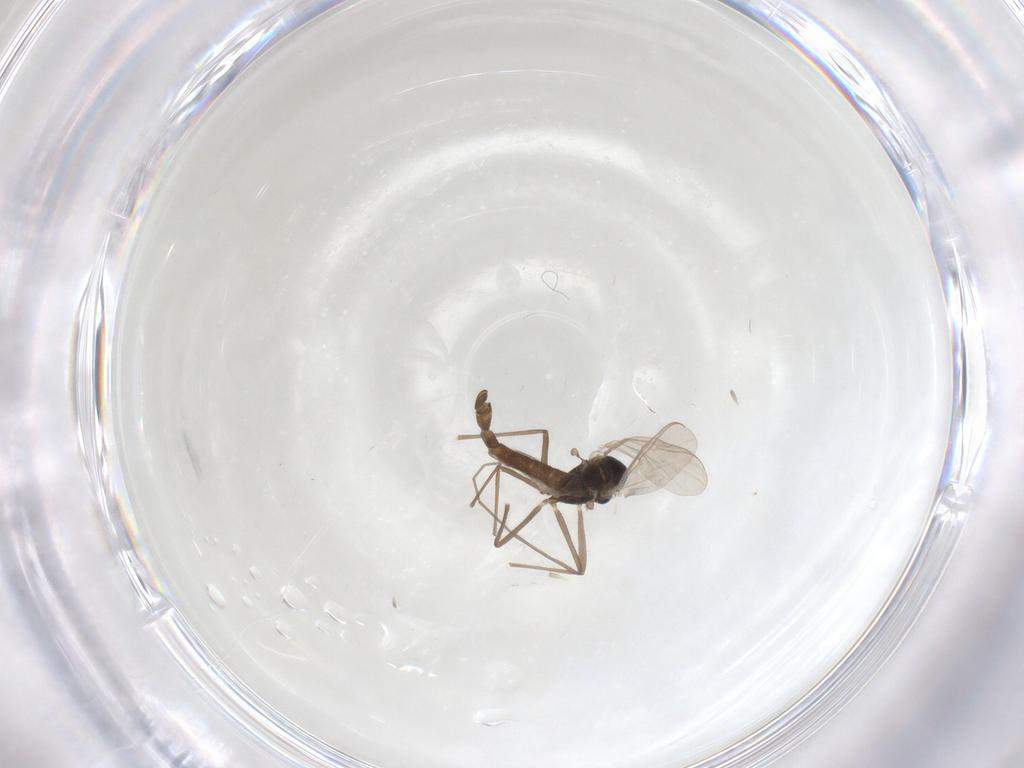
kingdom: Animalia
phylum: Arthropoda
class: Insecta
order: Diptera
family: Chironomidae
